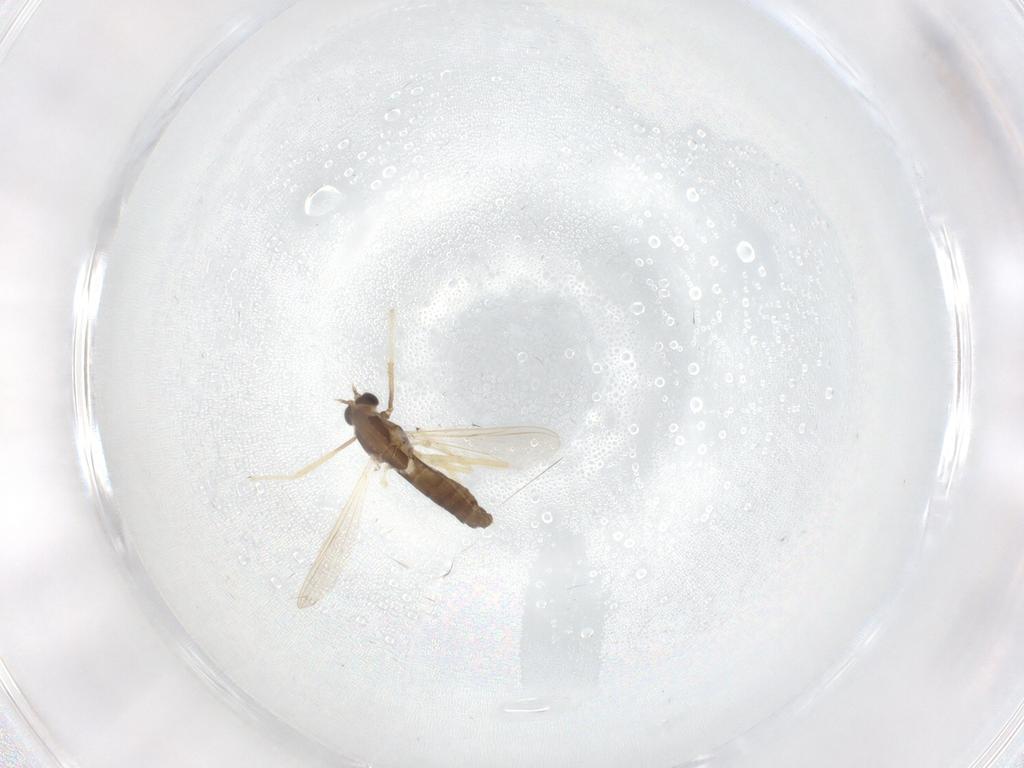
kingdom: Animalia
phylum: Arthropoda
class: Insecta
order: Diptera
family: Chironomidae
